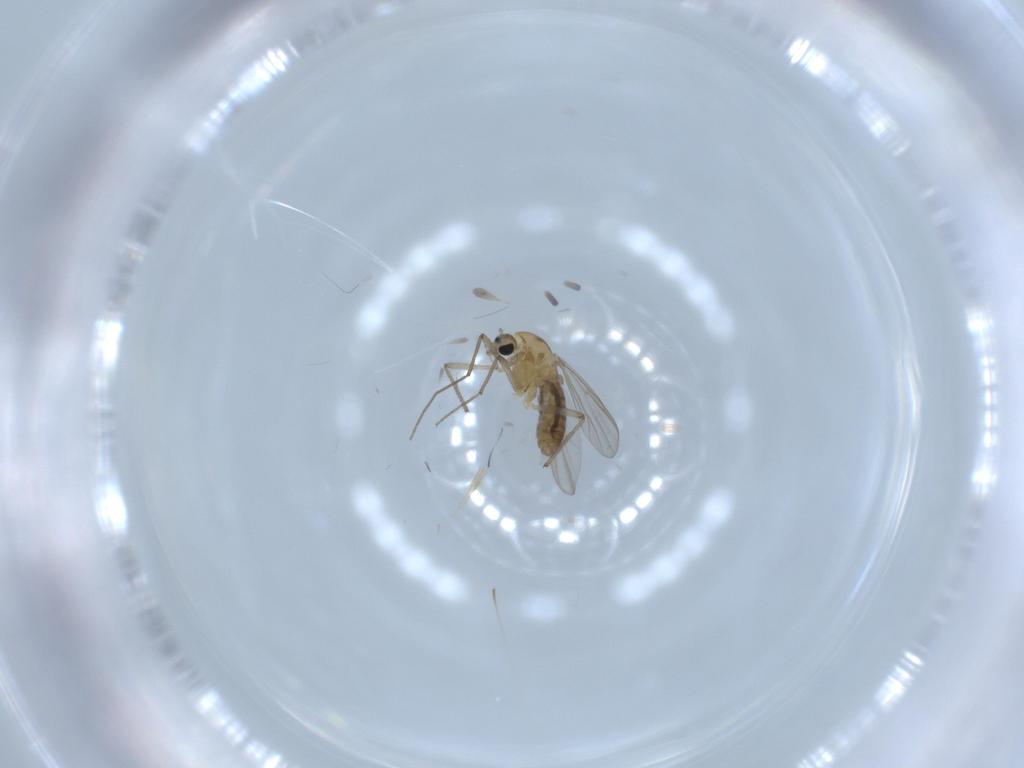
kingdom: Animalia
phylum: Arthropoda
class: Insecta
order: Diptera
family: Chironomidae
